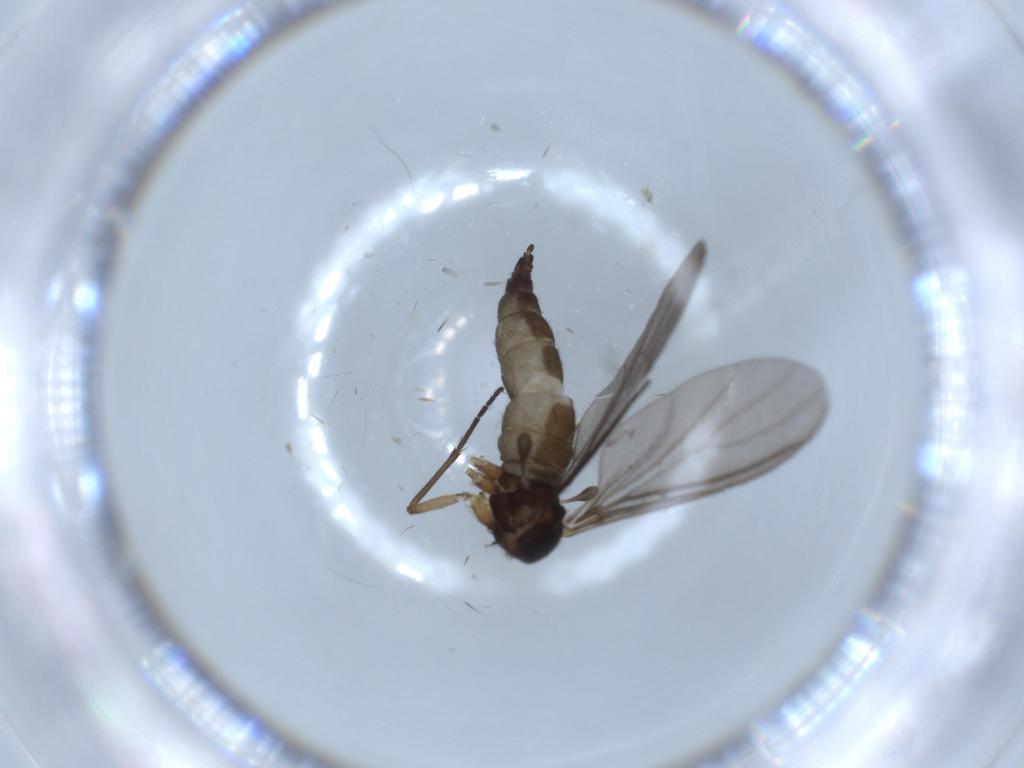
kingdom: Animalia
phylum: Arthropoda
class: Insecta
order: Diptera
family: Sciaridae
